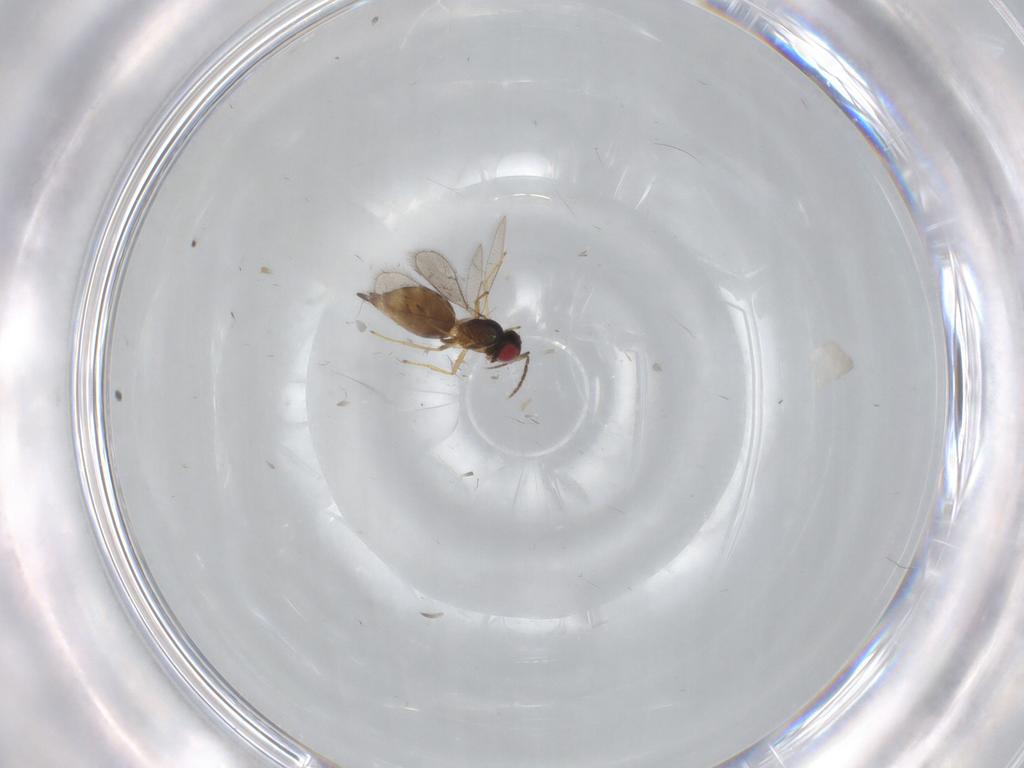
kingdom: Animalia
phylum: Arthropoda
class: Insecta
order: Hymenoptera
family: Eulophidae
